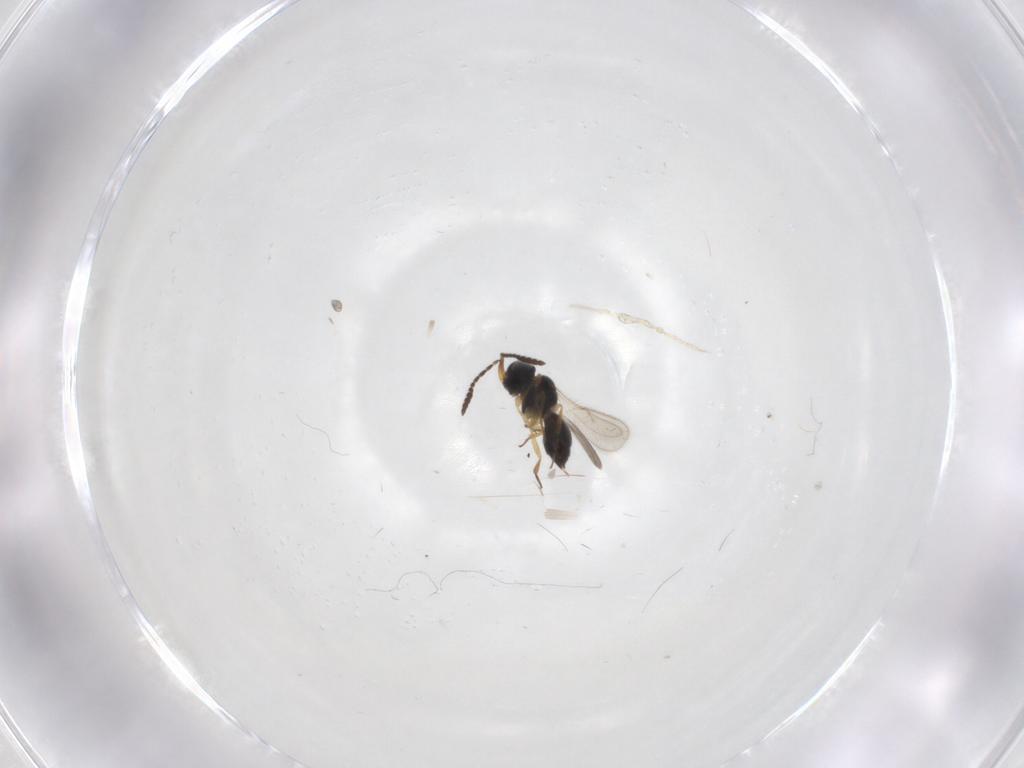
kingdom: Animalia
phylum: Arthropoda
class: Insecta
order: Hymenoptera
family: Scelionidae
